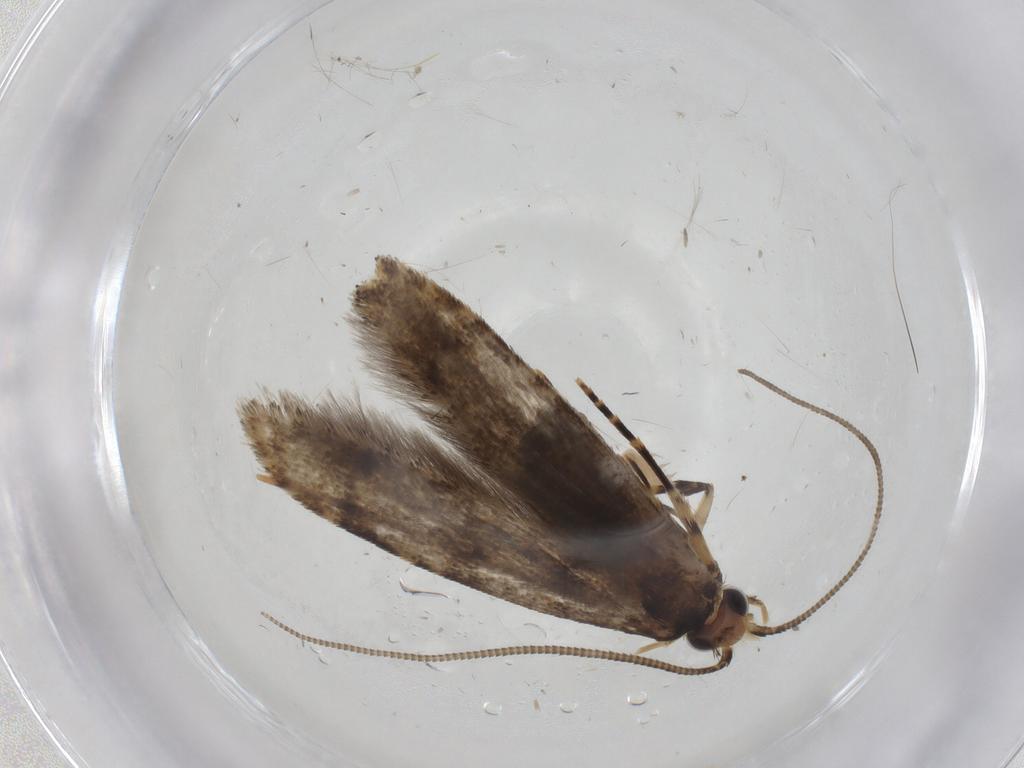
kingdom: Animalia
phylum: Arthropoda
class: Insecta
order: Lepidoptera
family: Tineidae
